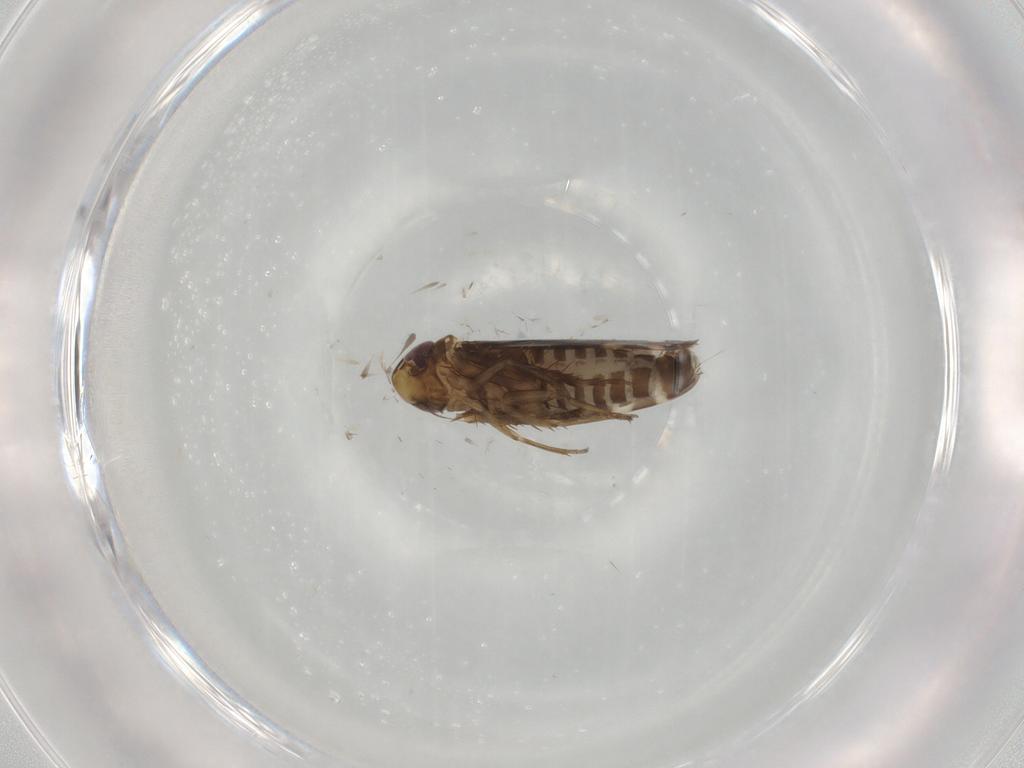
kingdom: Animalia
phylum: Arthropoda
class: Insecta
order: Hemiptera
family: Cicadellidae
